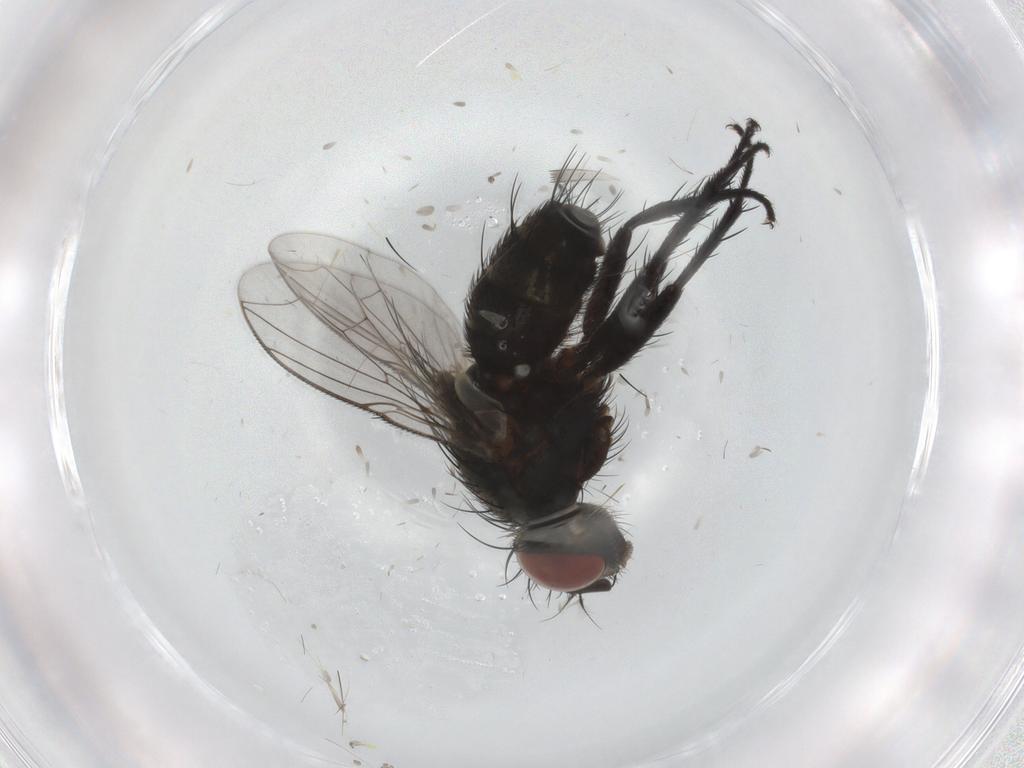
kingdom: Animalia
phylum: Arthropoda
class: Insecta
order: Diptera
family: Sarcophagidae
